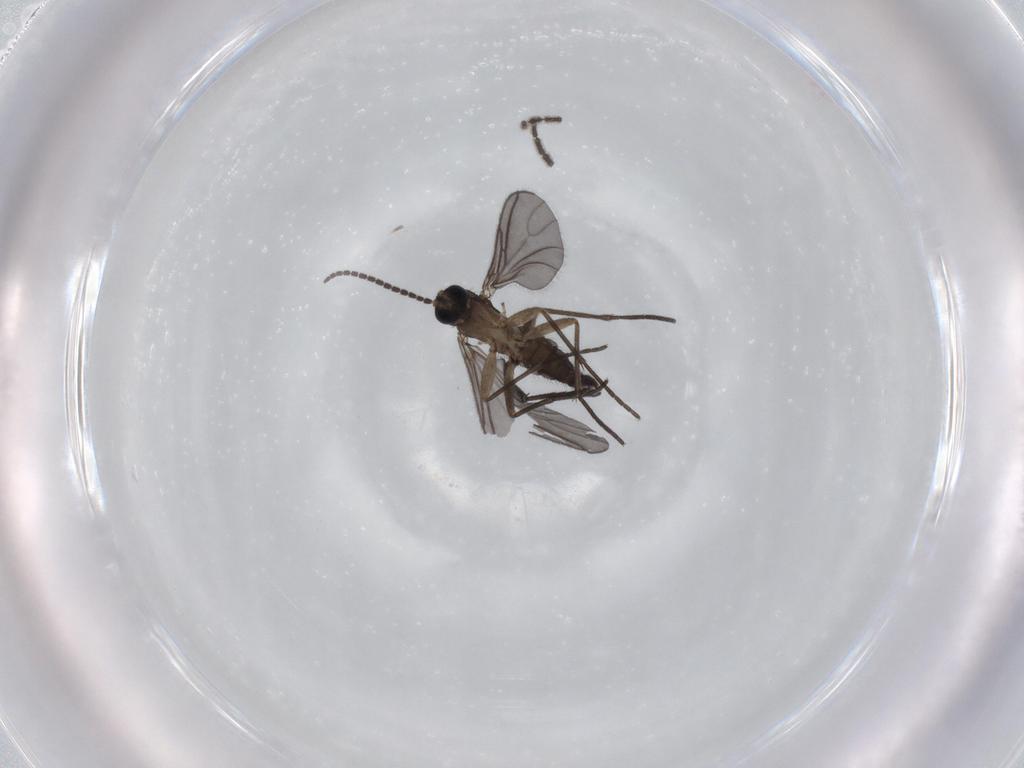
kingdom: Animalia
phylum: Arthropoda
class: Insecta
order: Diptera
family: Sciaridae
